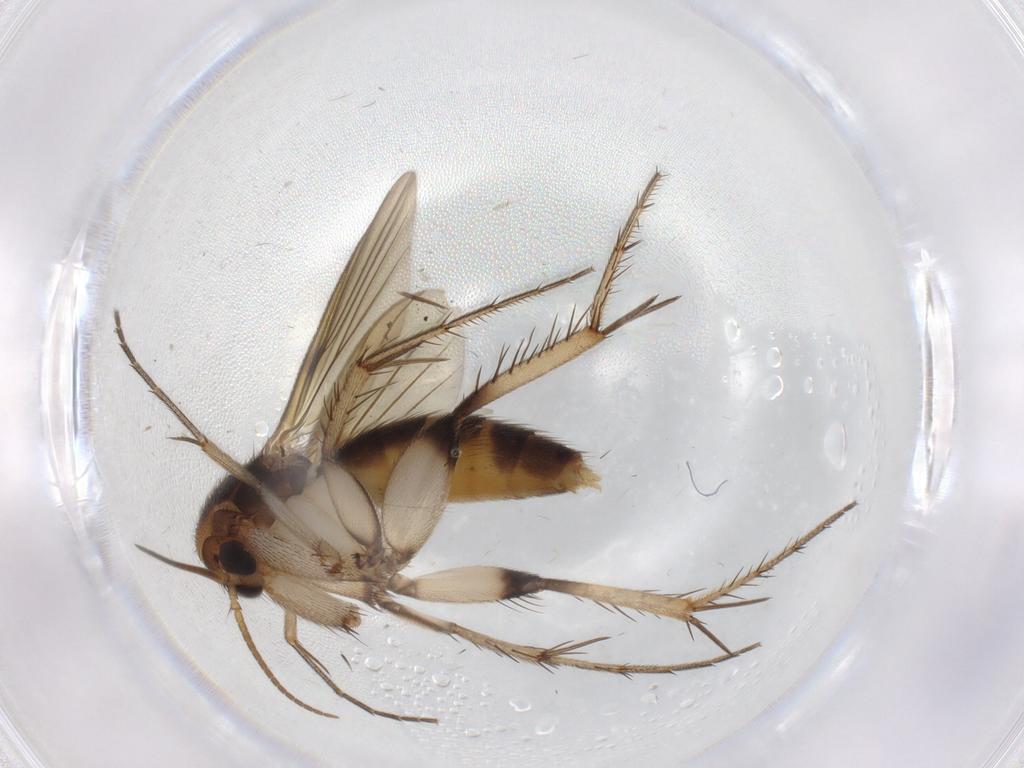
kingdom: Animalia
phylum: Arthropoda
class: Insecta
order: Diptera
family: Mycetophilidae
